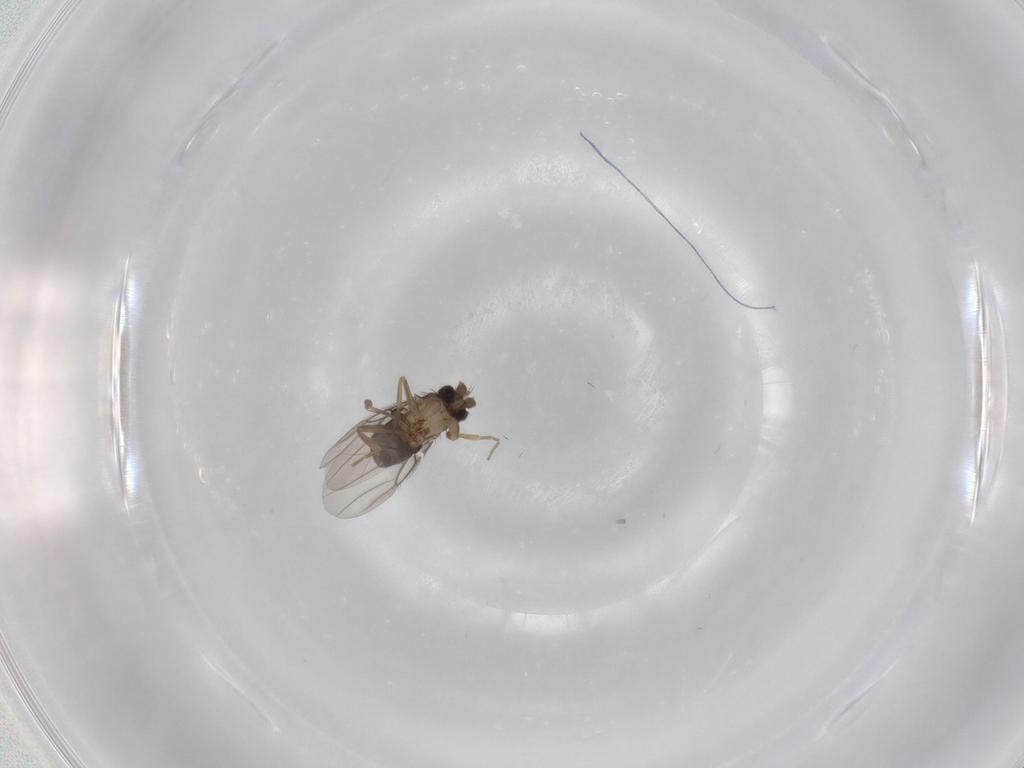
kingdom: Animalia
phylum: Arthropoda
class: Insecta
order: Diptera
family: Phoridae
